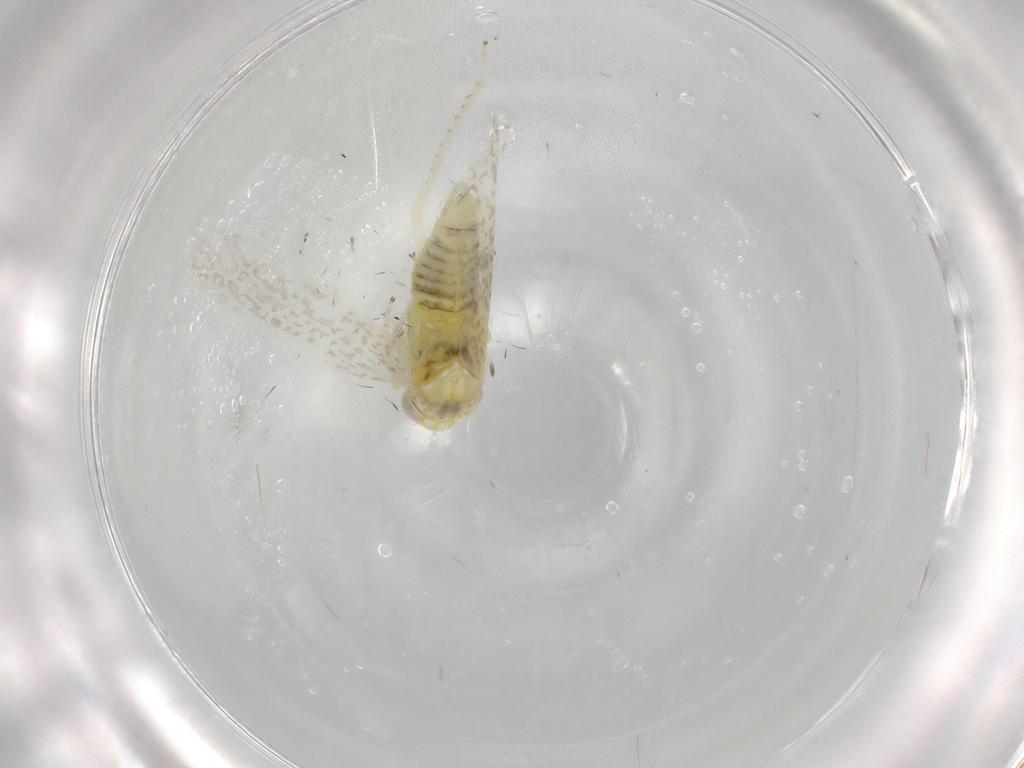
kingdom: Animalia
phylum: Arthropoda
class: Insecta
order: Hemiptera
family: Cicadellidae
